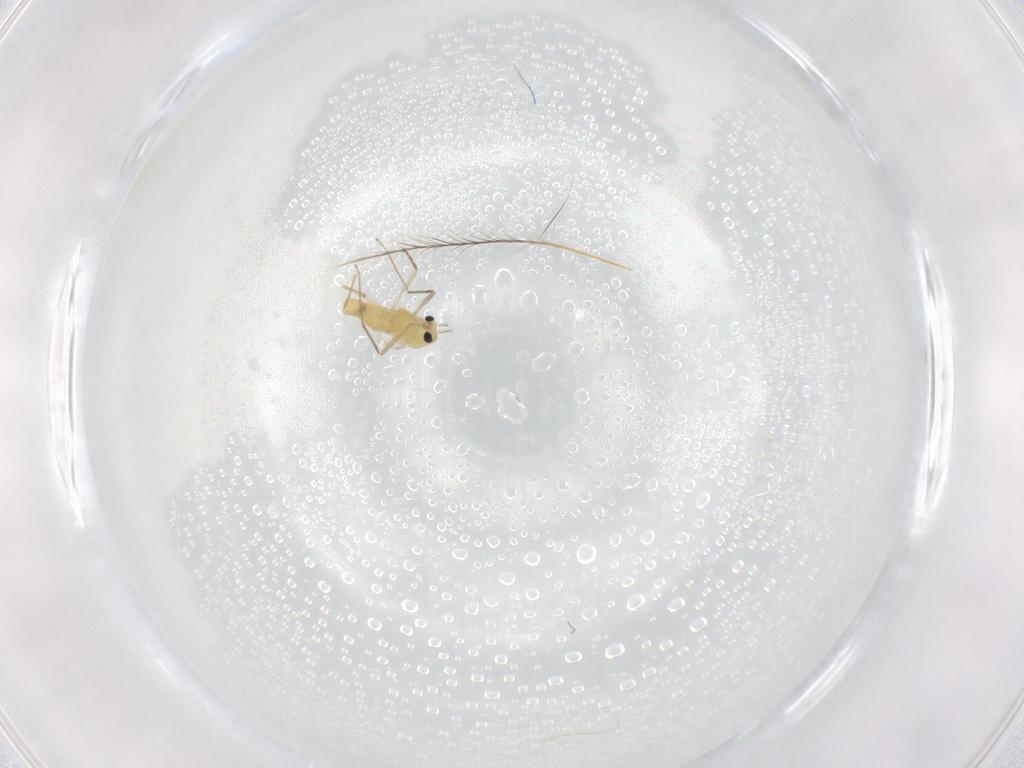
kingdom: Animalia
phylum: Arthropoda
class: Insecta
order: Diptera
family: Chironomidae
